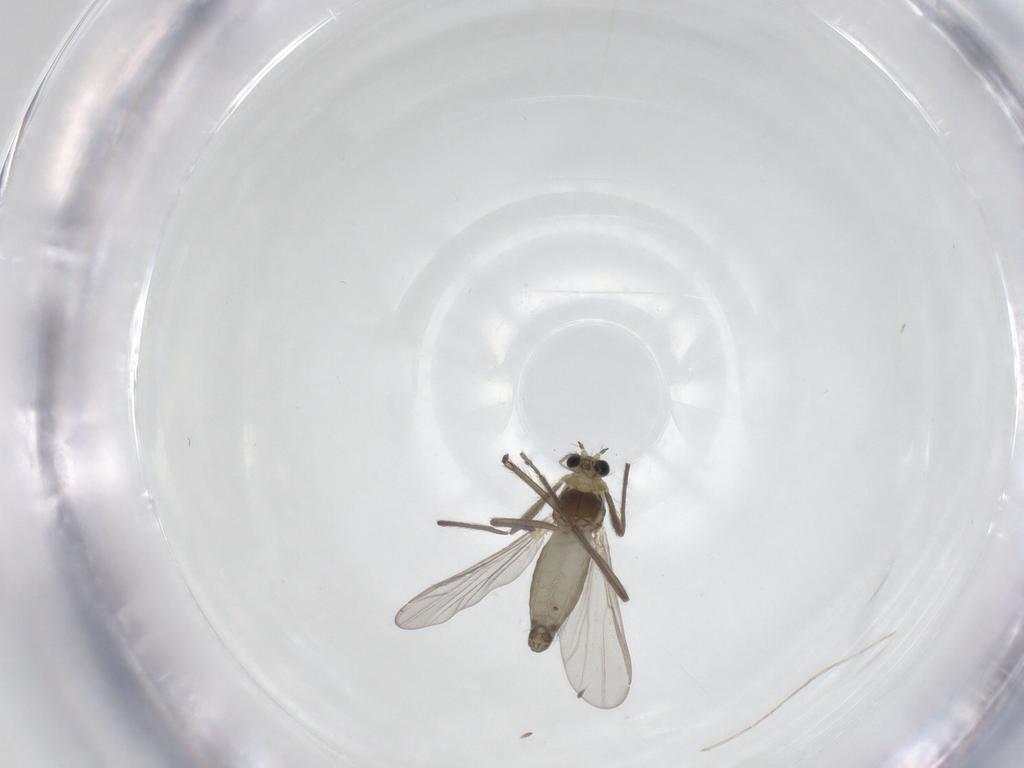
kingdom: Animalia
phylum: Arthropoda
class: Insecta
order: Diptera
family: Chironomidae
